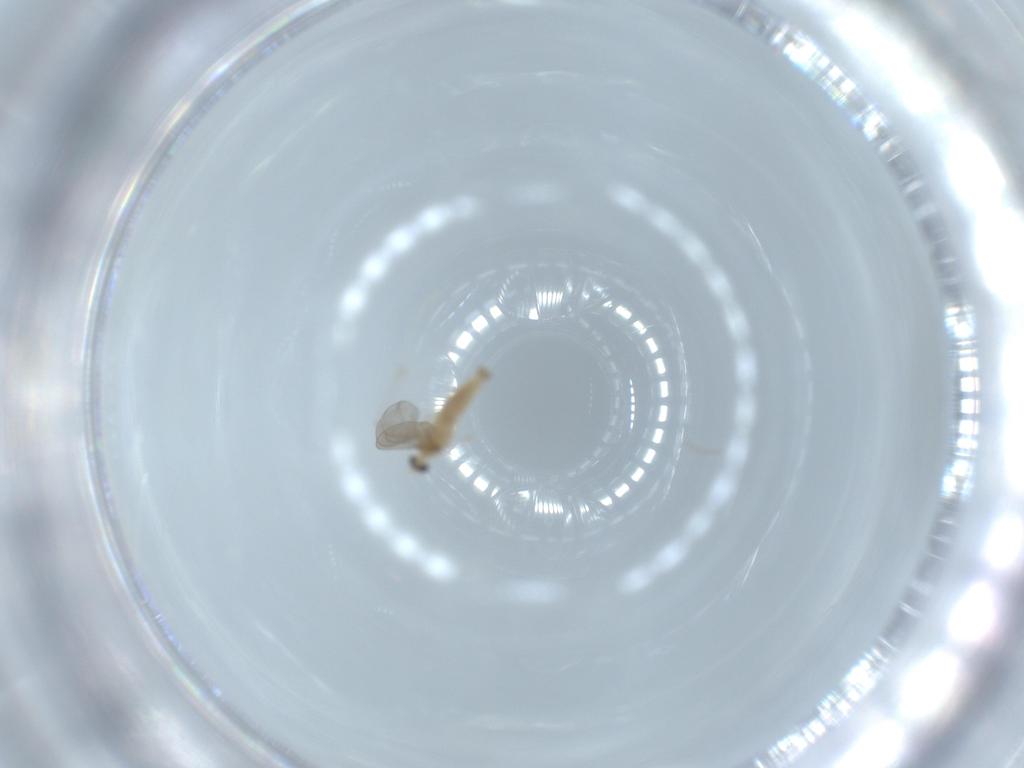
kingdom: Animalia
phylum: Arthropoda
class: Insecta
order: Diptera
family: Cecidomyiidae
